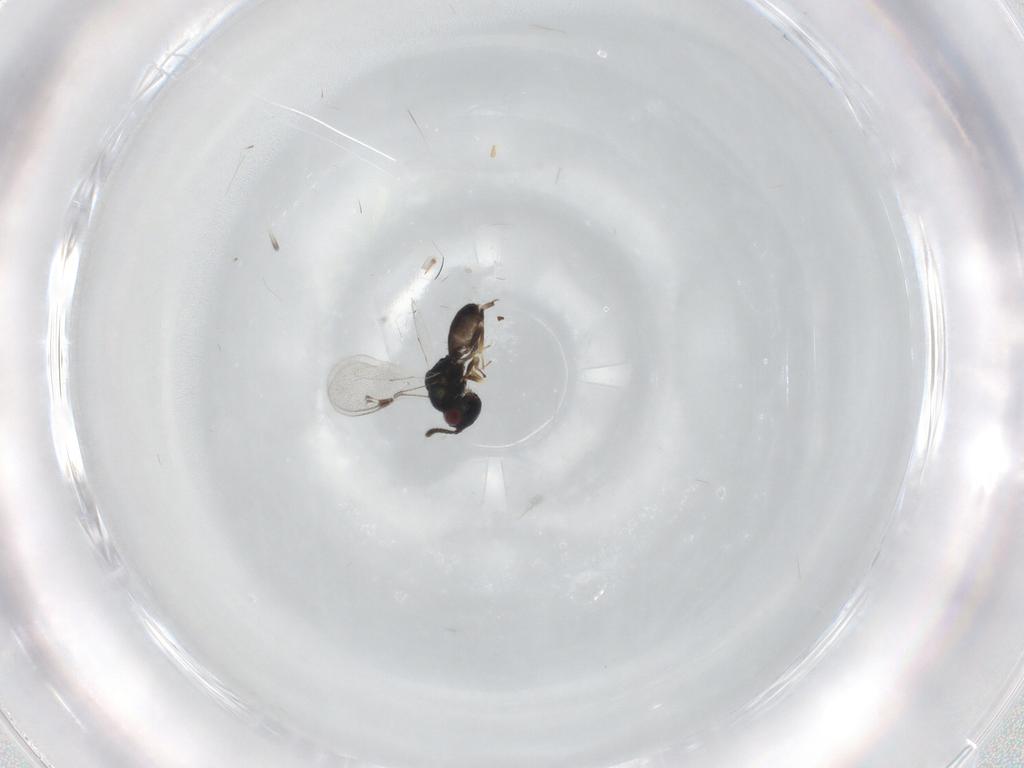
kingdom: Animalia
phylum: Arthropoda
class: Insecta
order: Hymenoptera
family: Pteromalidae
